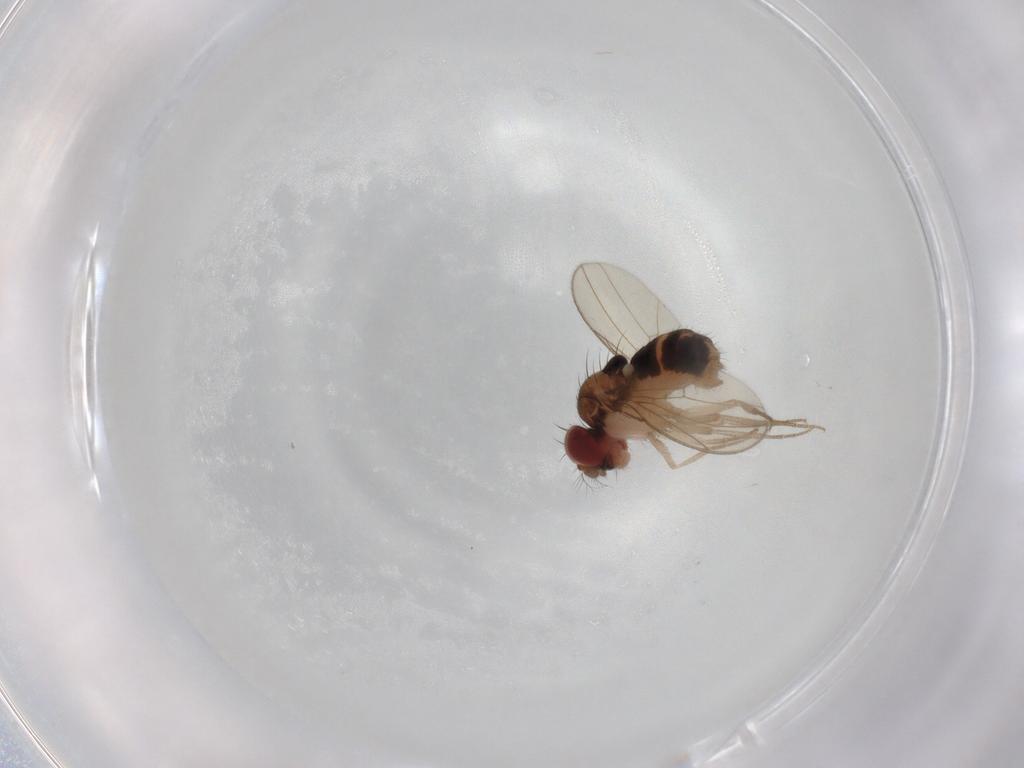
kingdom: Animalia
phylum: Arthropoda
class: Insecta
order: Diptera
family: Drosophilidae
